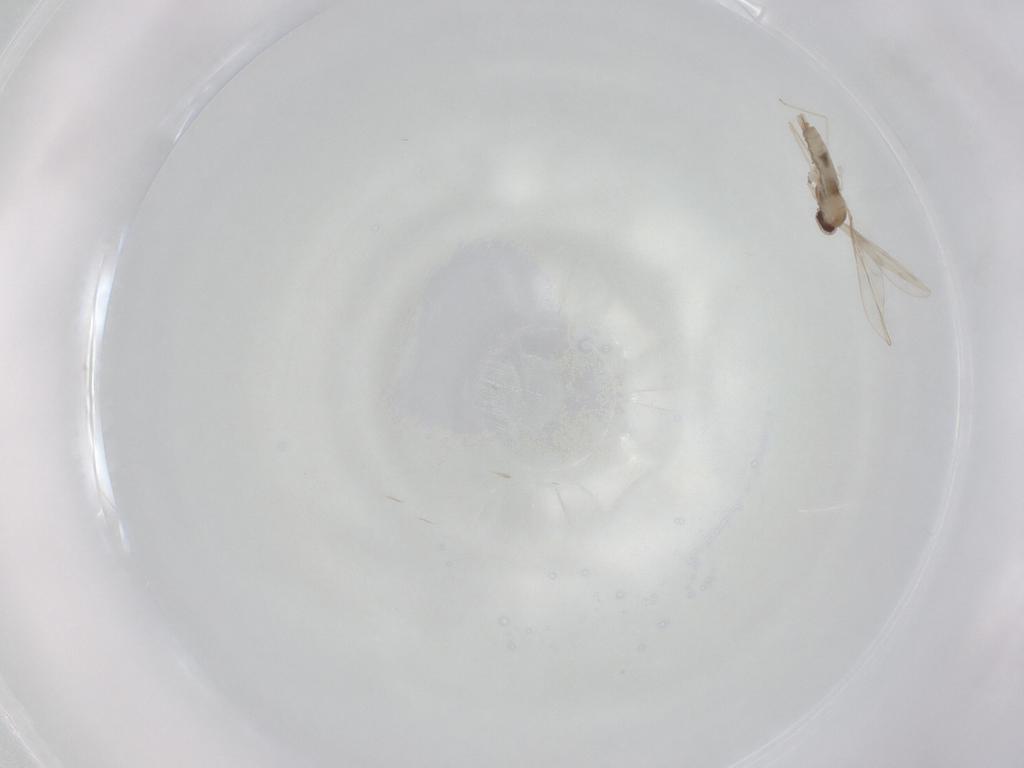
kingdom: Animalia
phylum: Arthropoda
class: Insecta
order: Diptera
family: Cecidomyiidae
